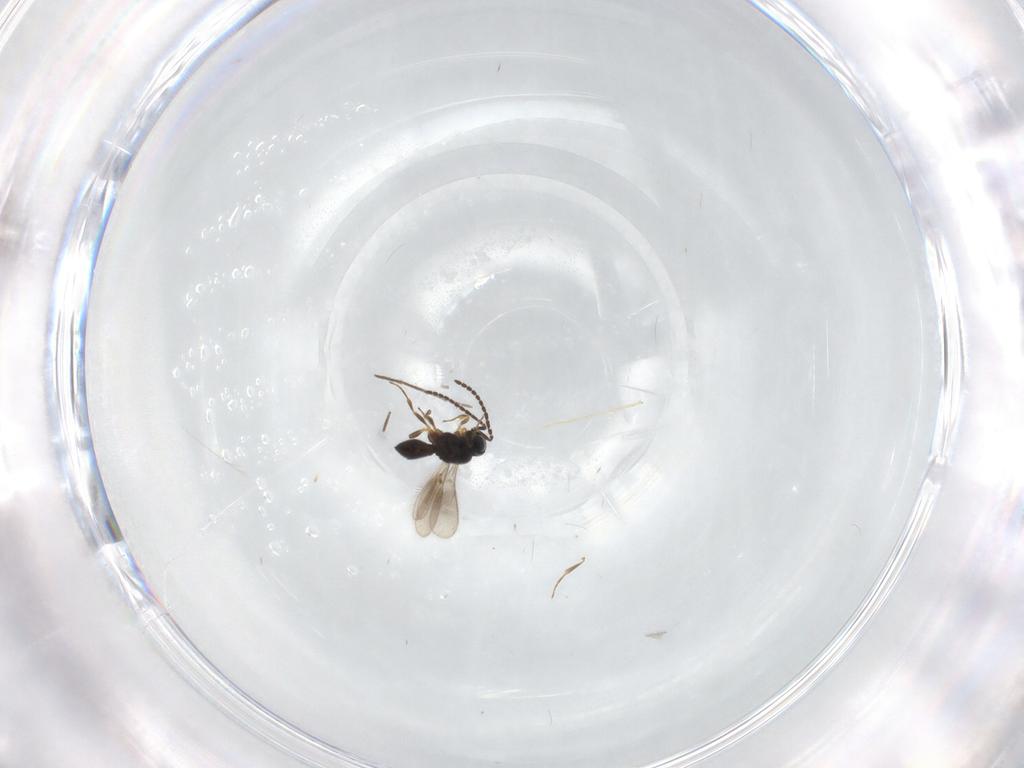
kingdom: Animalia
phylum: Arthropoda
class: Insecta
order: Hymenoptera
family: Scelionidae
